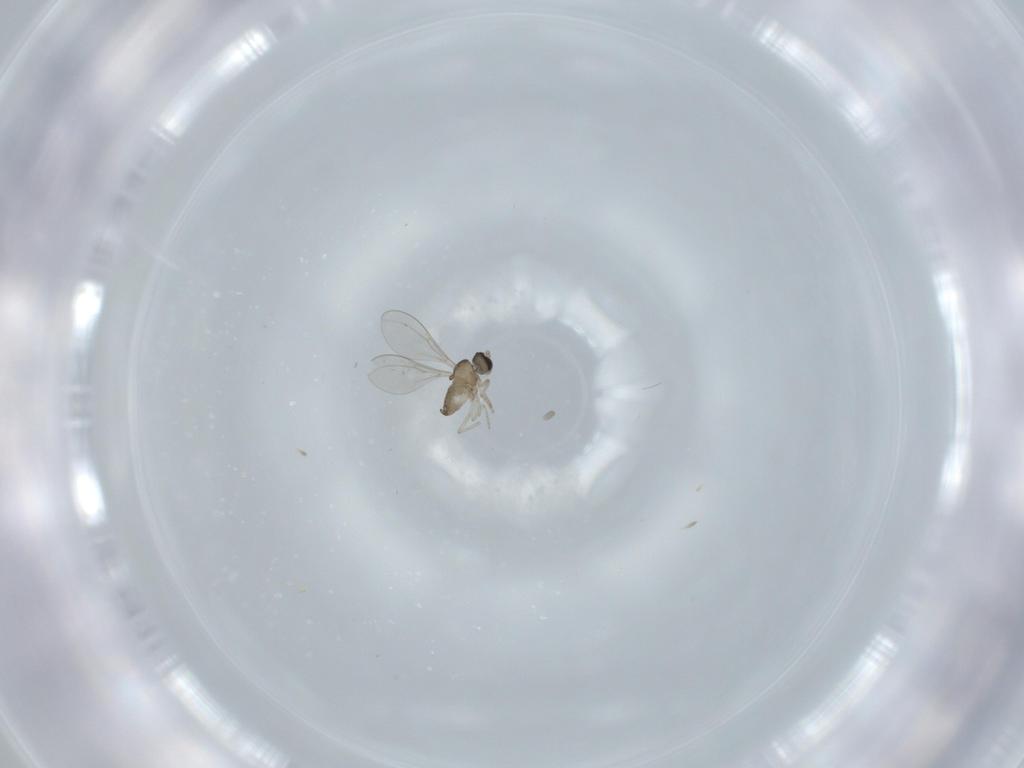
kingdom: Animalia
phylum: Arthropoda
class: Insecta
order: Diptera
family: Cecidomyiidae
